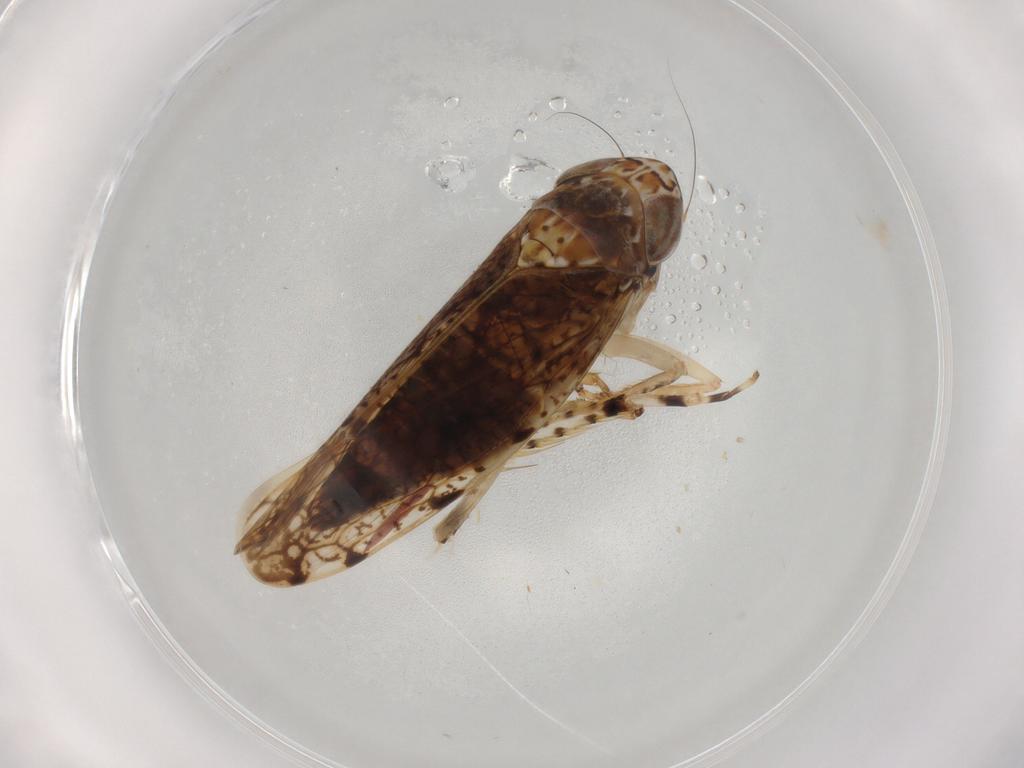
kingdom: Animalia
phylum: Arthropoda
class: Insecta
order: Hemiptera
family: Cicadellidae
